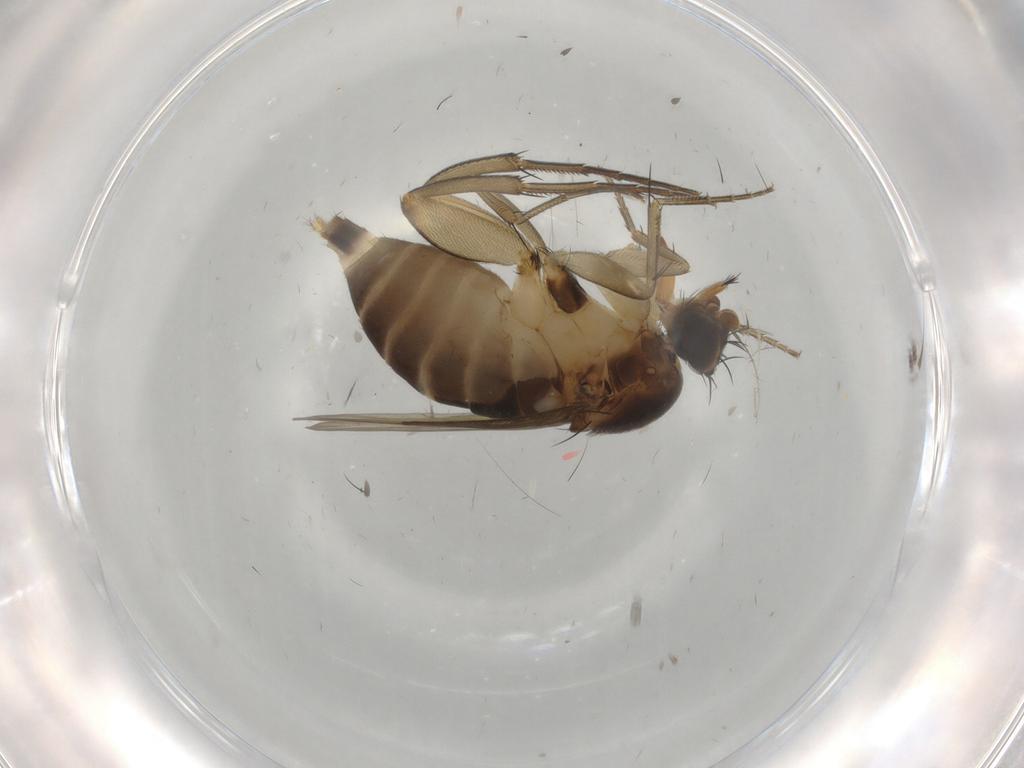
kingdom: Animalia
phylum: Arthropoda
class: Insecta
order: Diptera
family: Phoridae
